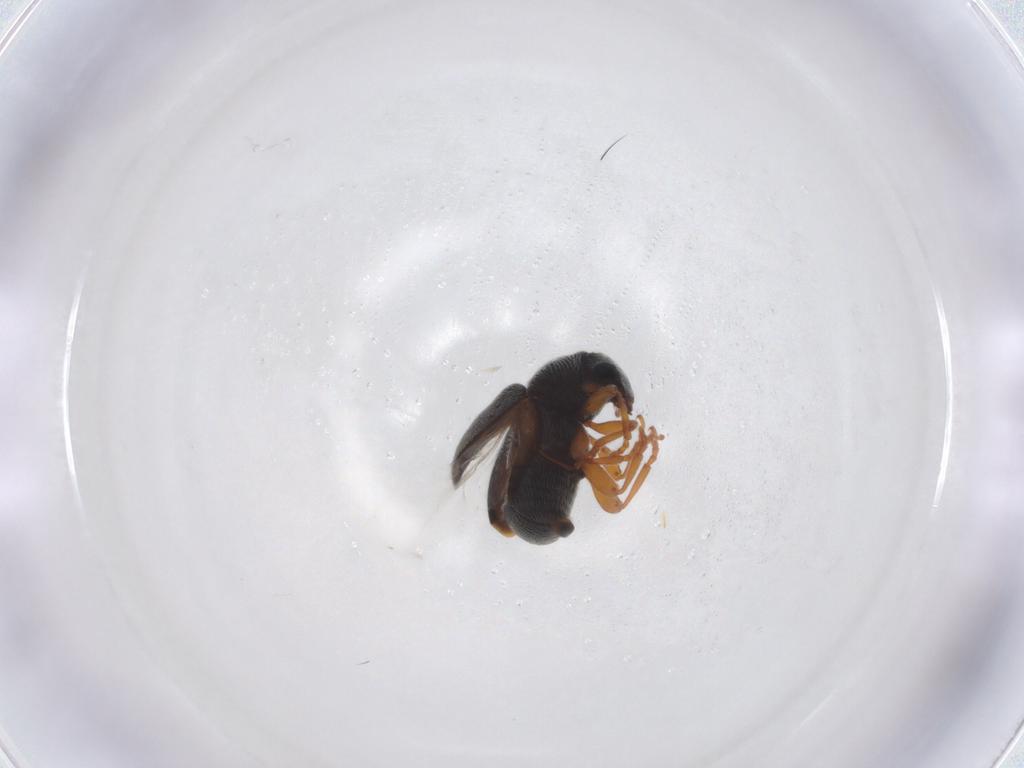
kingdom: Animalia
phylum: Arthropoda
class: Insecta
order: Coleoptera
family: Anthribidae
